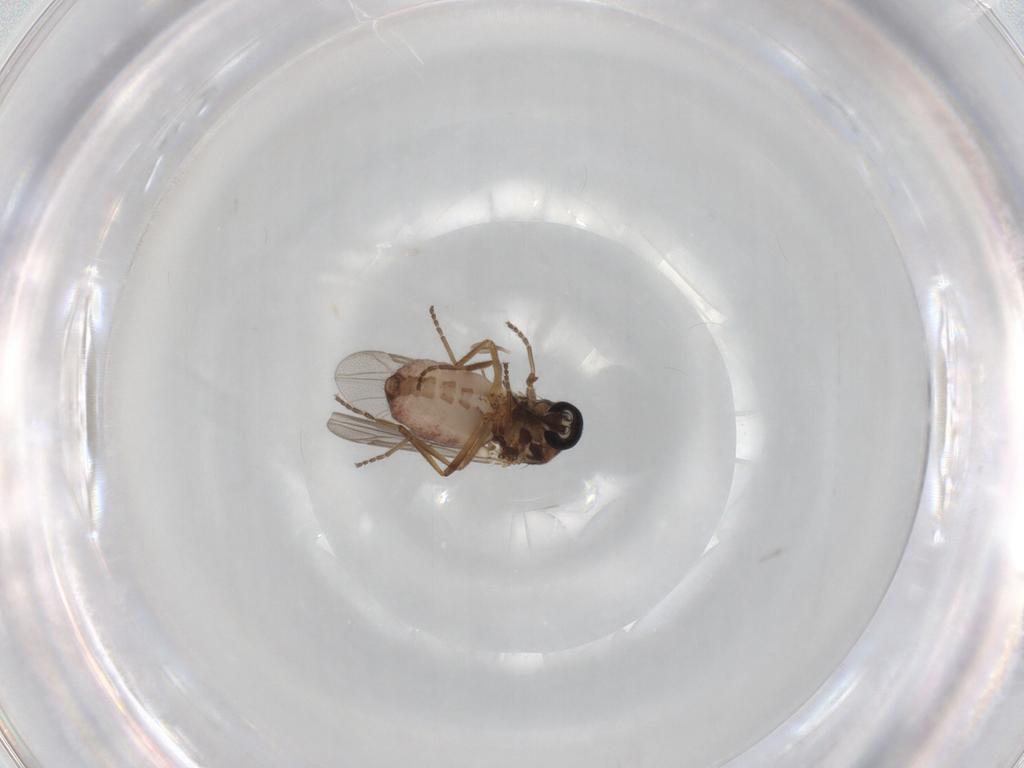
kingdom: Animalia
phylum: Arthropoda
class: Insecta
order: Diptera
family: Ceratopogonidae
